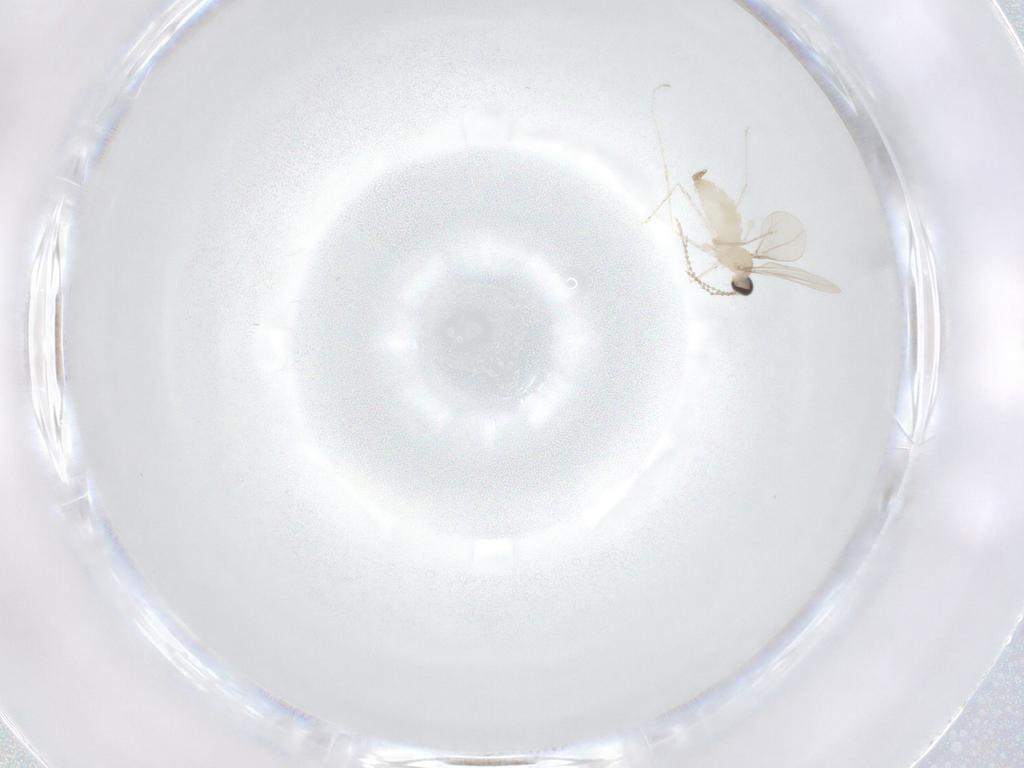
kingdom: Animalia
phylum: Arthropoda
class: Insecta
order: Diptera
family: Cecidomyiidae
